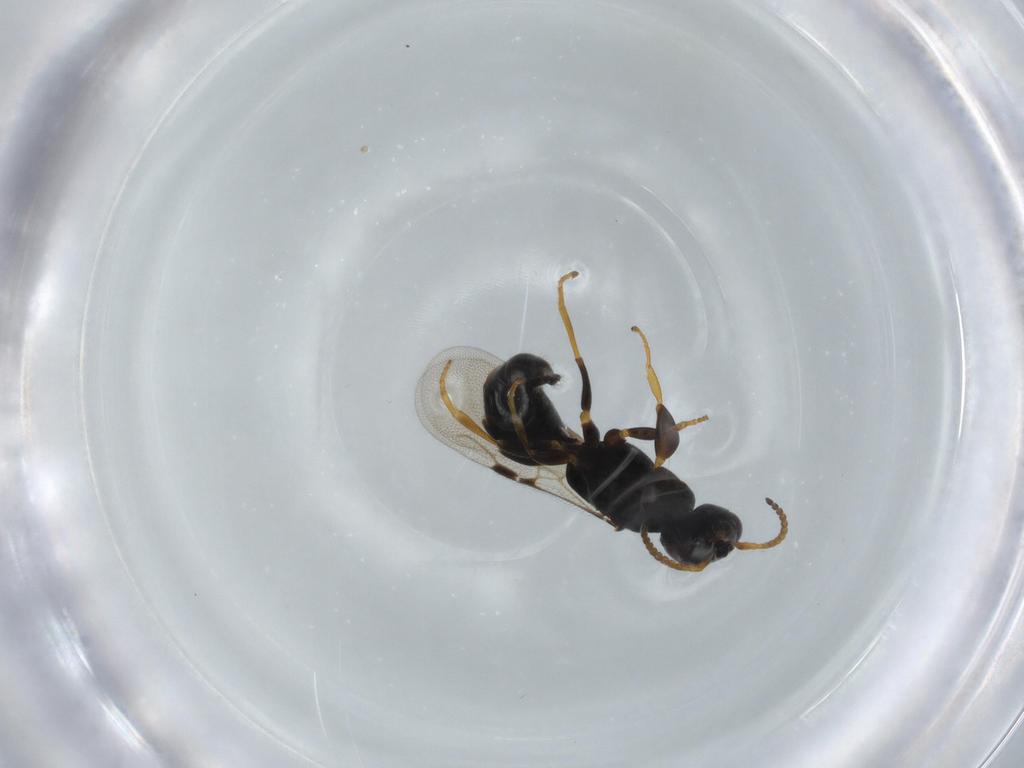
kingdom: Animalia
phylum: Arthropoda
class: Insecta
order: Hymenoptera
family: Bethylidae
